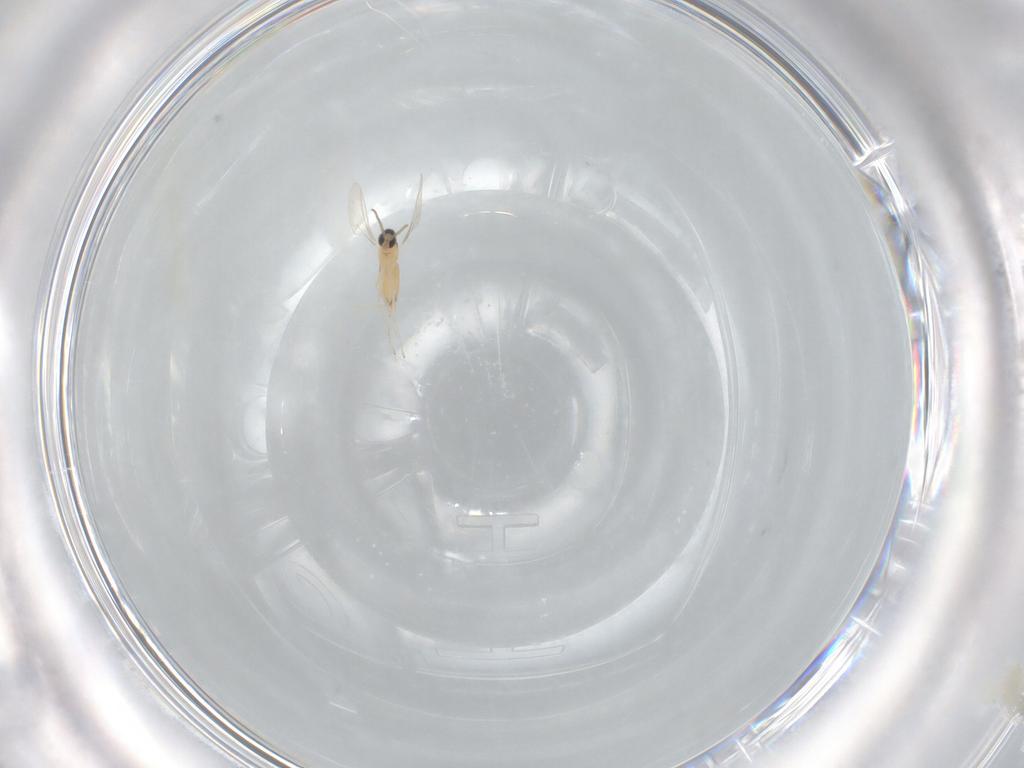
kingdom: Animalia
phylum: Arthropoda
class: Insecta
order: Diptera
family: Cecidomyiidae
